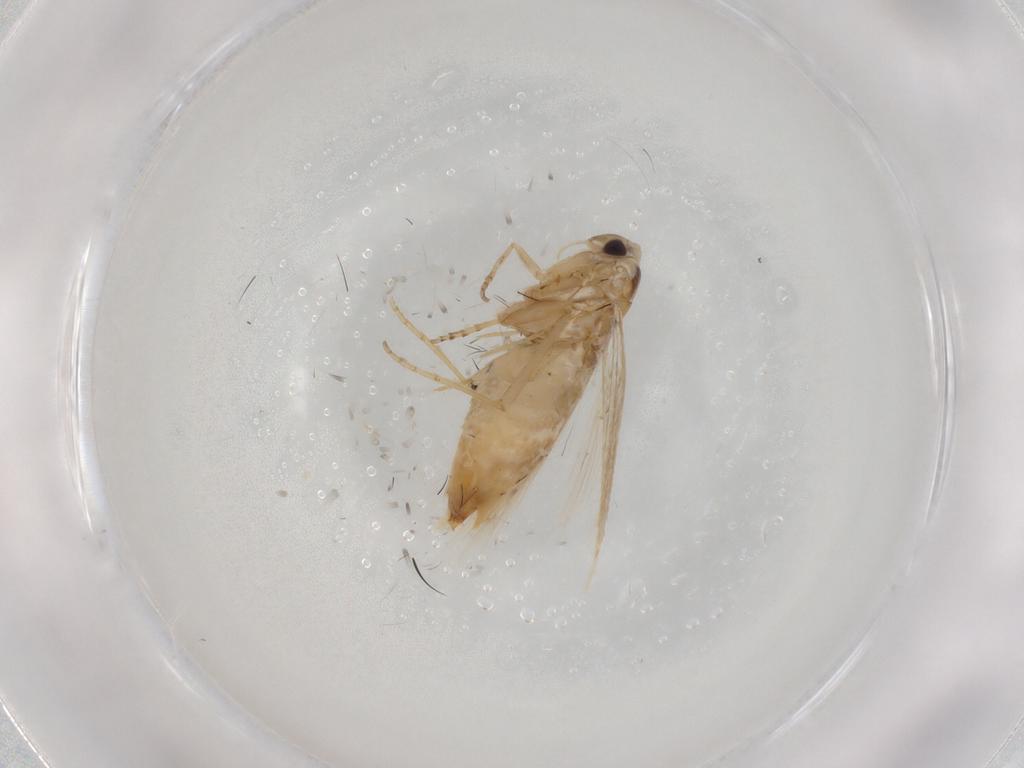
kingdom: Animalia
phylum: Arthropoda
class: Insecta
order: Lepidoptera
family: Bucculatricidae
